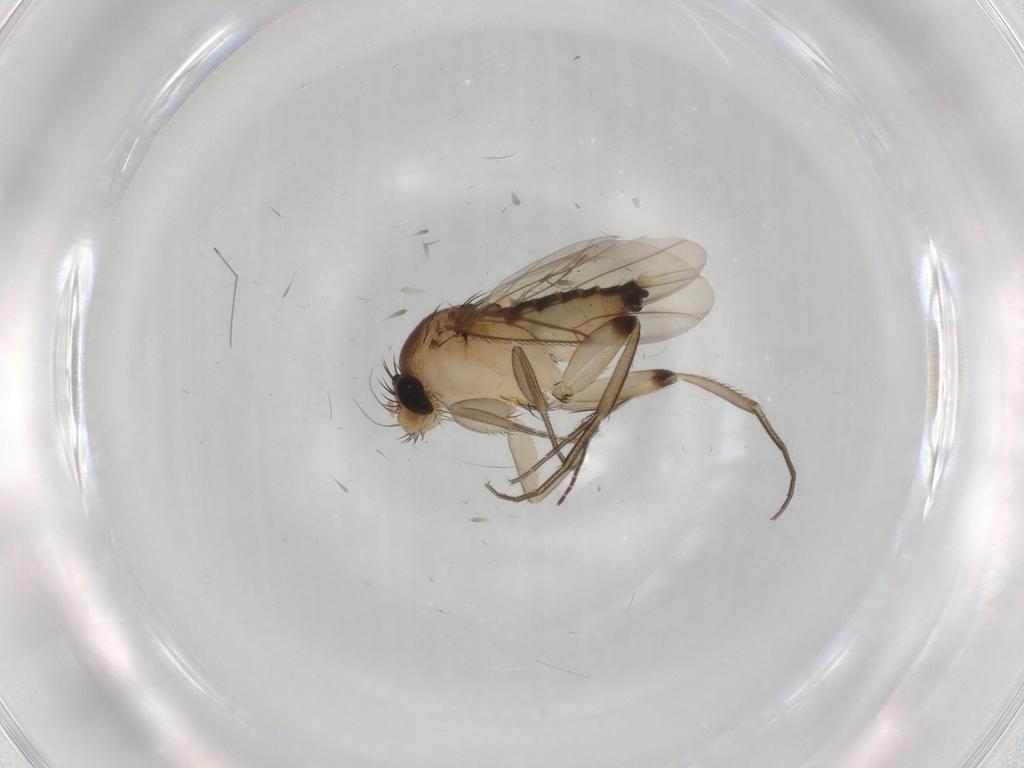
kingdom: Animalia
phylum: Arthropoda
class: Insecta
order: Diptera
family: Phoridae
